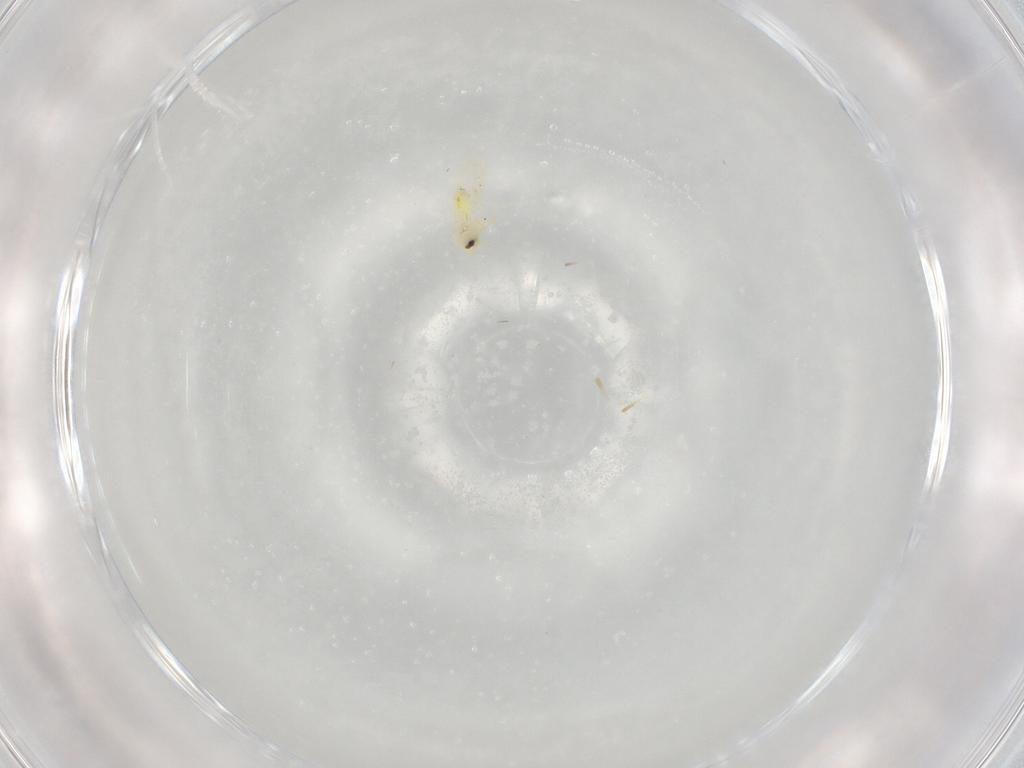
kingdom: Animalia
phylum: Arthropoda
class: Insecta
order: Hemiptera
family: Aleyrodidae
